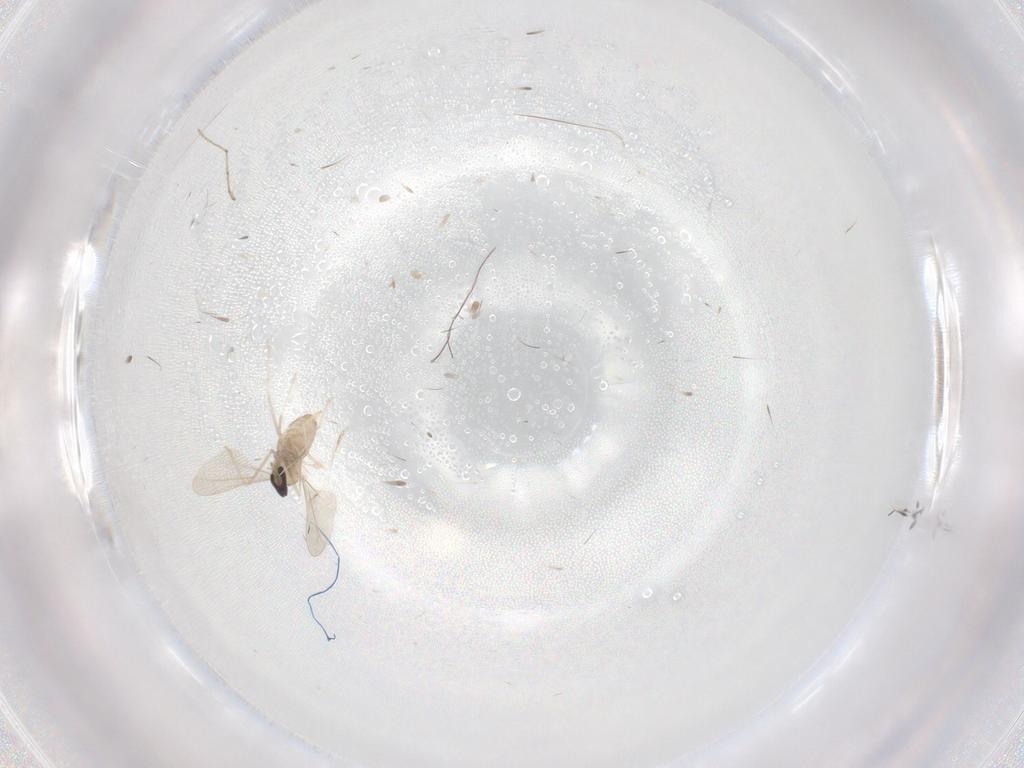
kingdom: Animalia
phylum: Arthropoda
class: Insecta
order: Diptera
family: Cecidomyiidae
